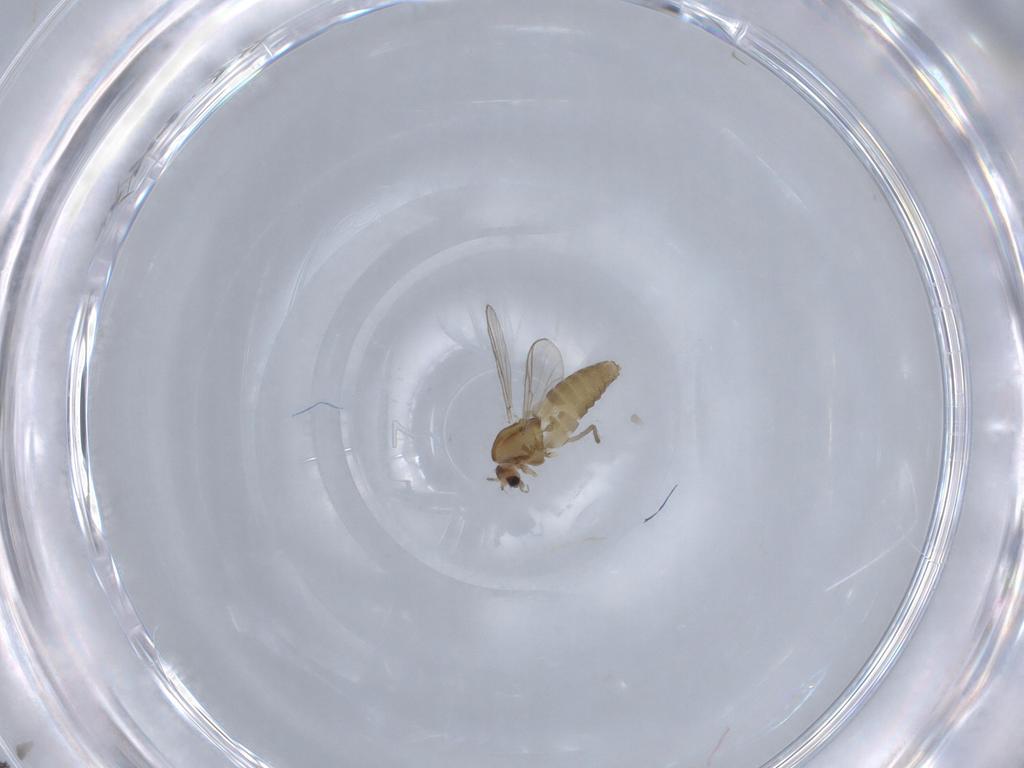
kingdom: Animalia
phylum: Arthropoda
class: Insecta
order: Diptera
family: Chironomidae
